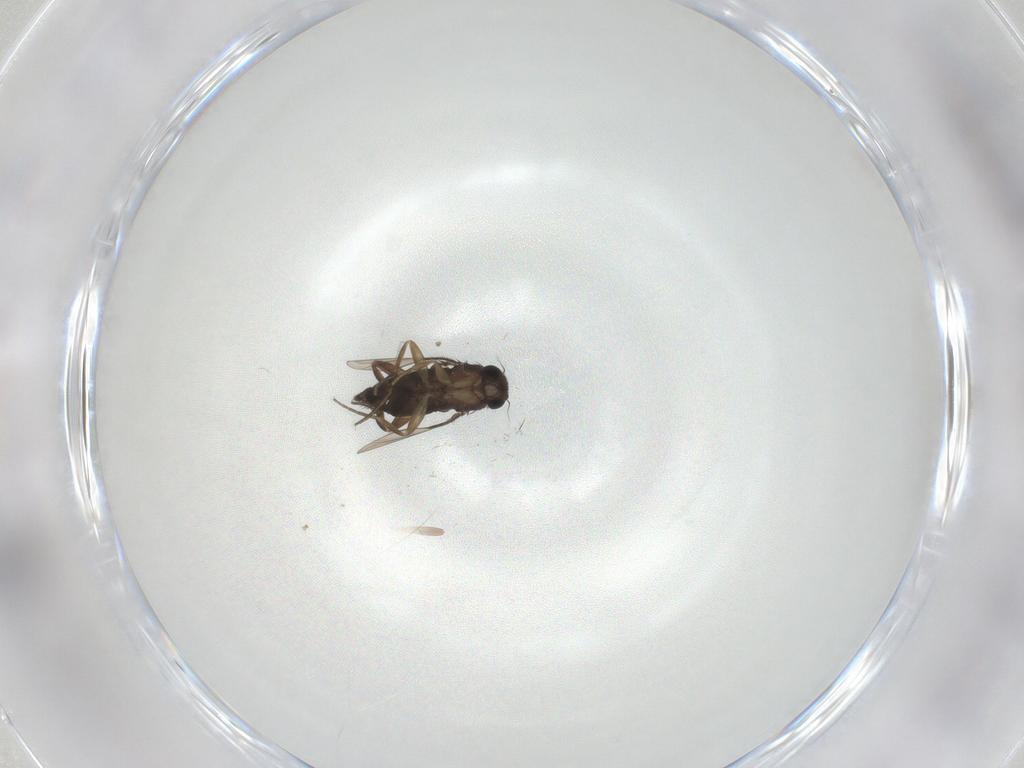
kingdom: Animalia
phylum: Arthropoda
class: Insecta
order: Diptera
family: Phoridae
